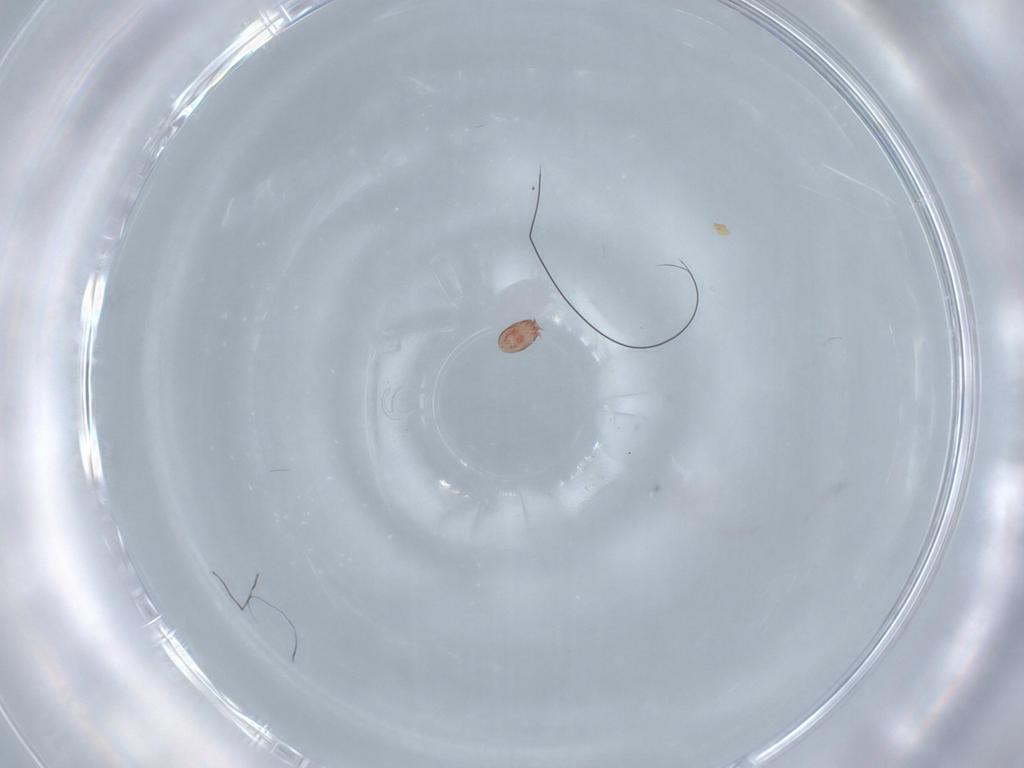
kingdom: Animalia
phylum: Arthropoda
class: Arachnida
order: Sarcoptiformes
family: Acaridae
